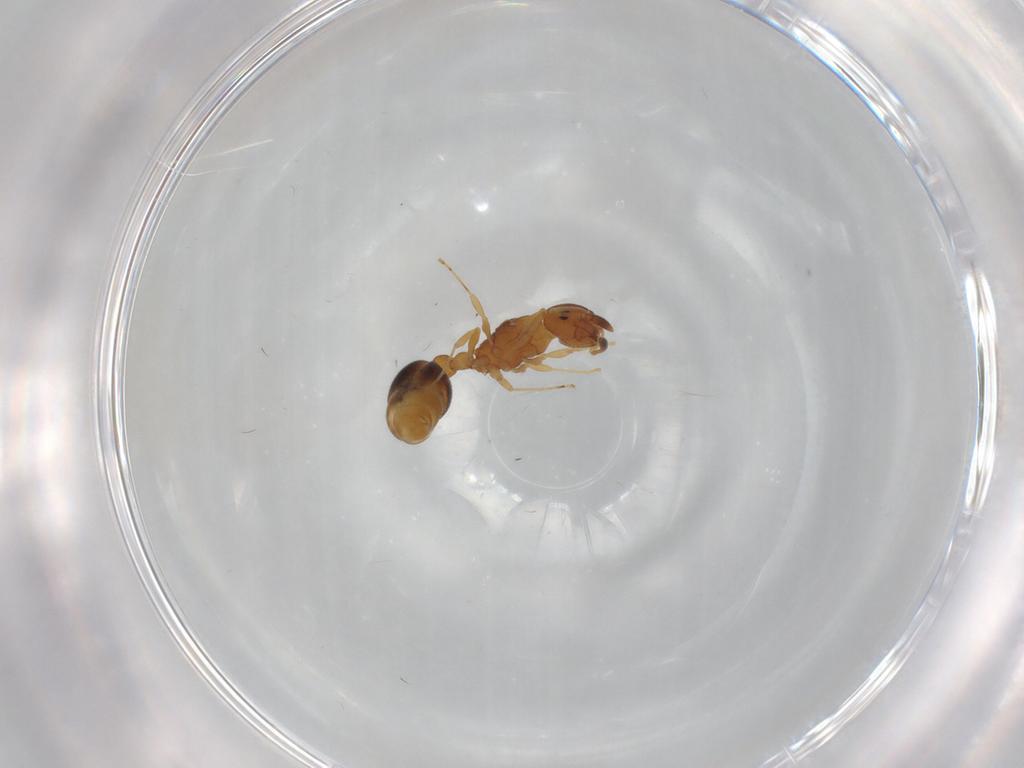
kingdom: Animalia
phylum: Arthropoda
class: Insecta
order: Hymenoptera
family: Formicidae
